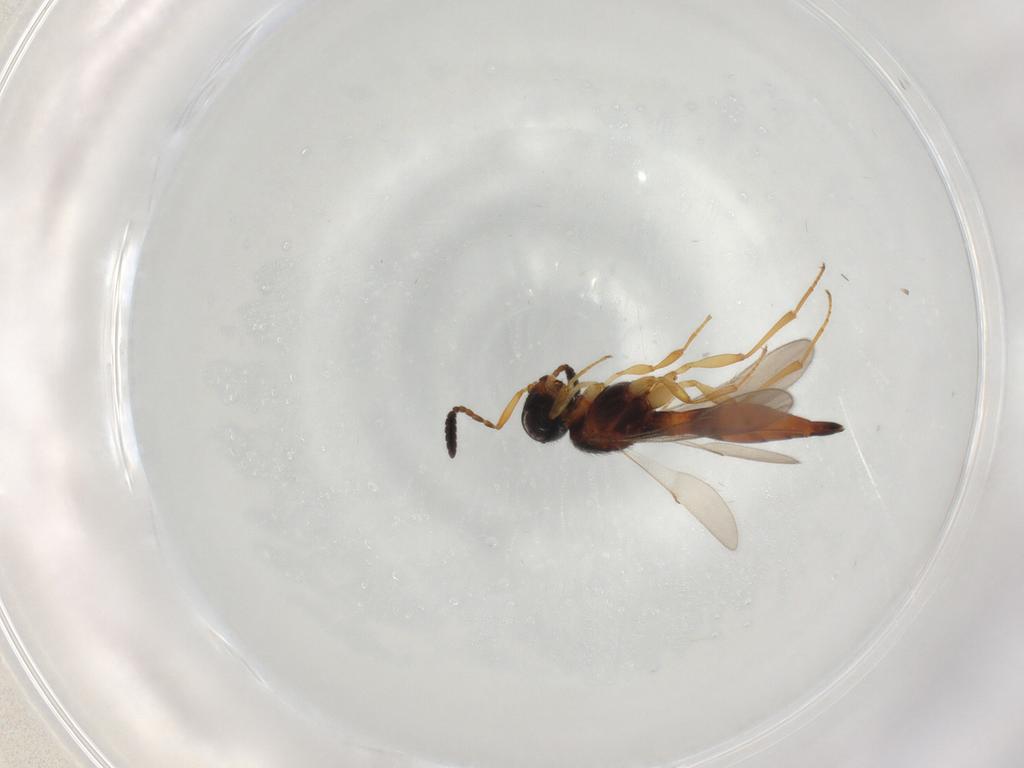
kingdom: Animalia
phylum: Arthropoda
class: Insecta
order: Hymenoptera
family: Scelionidae
